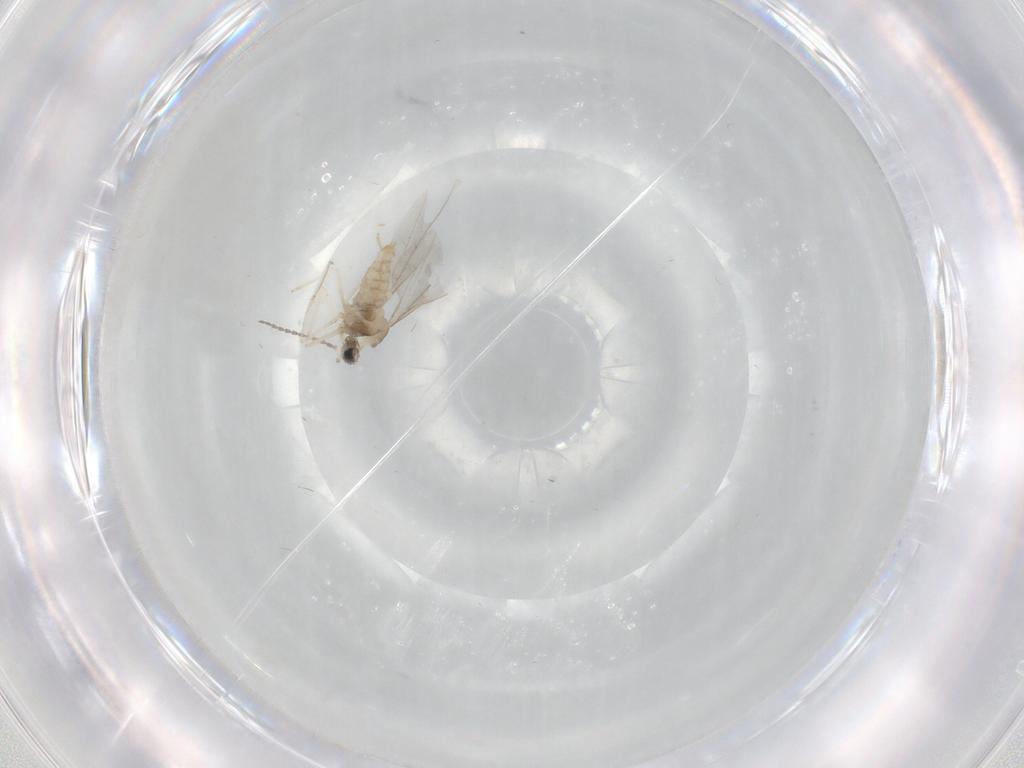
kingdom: Animalia
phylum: Arthropoda
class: Insecta
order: Diptera
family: Cecidomyiidae
